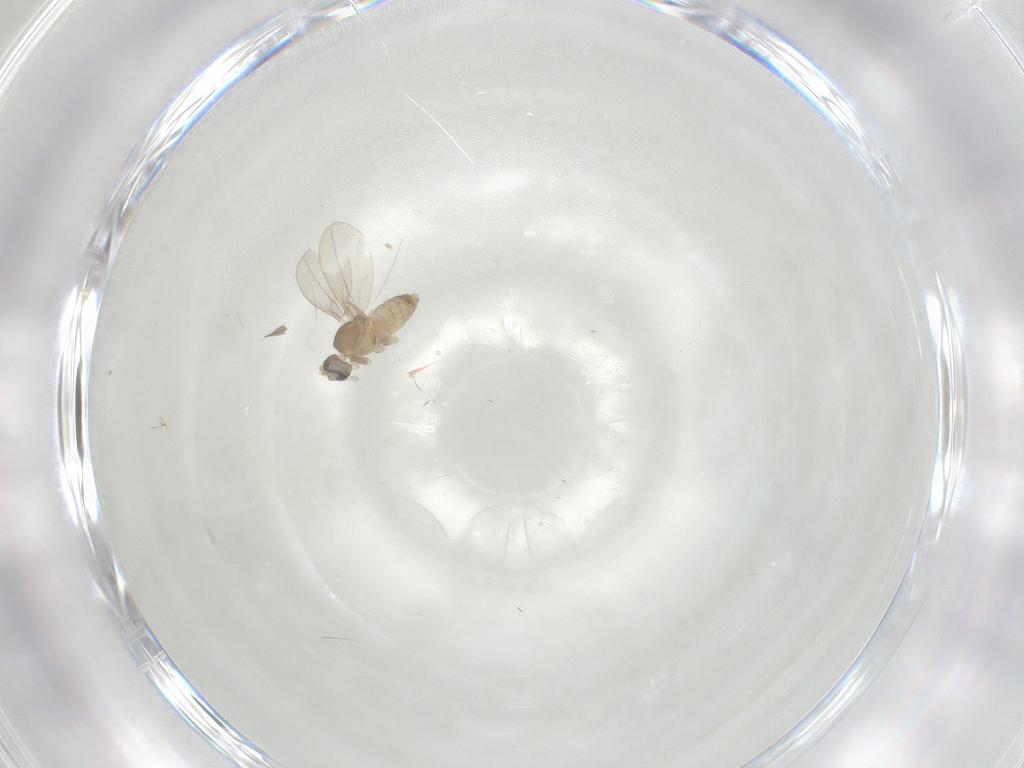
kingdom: Animalia
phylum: Arthropoda
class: Insecta
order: Diptera
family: Cecidomyiidae
